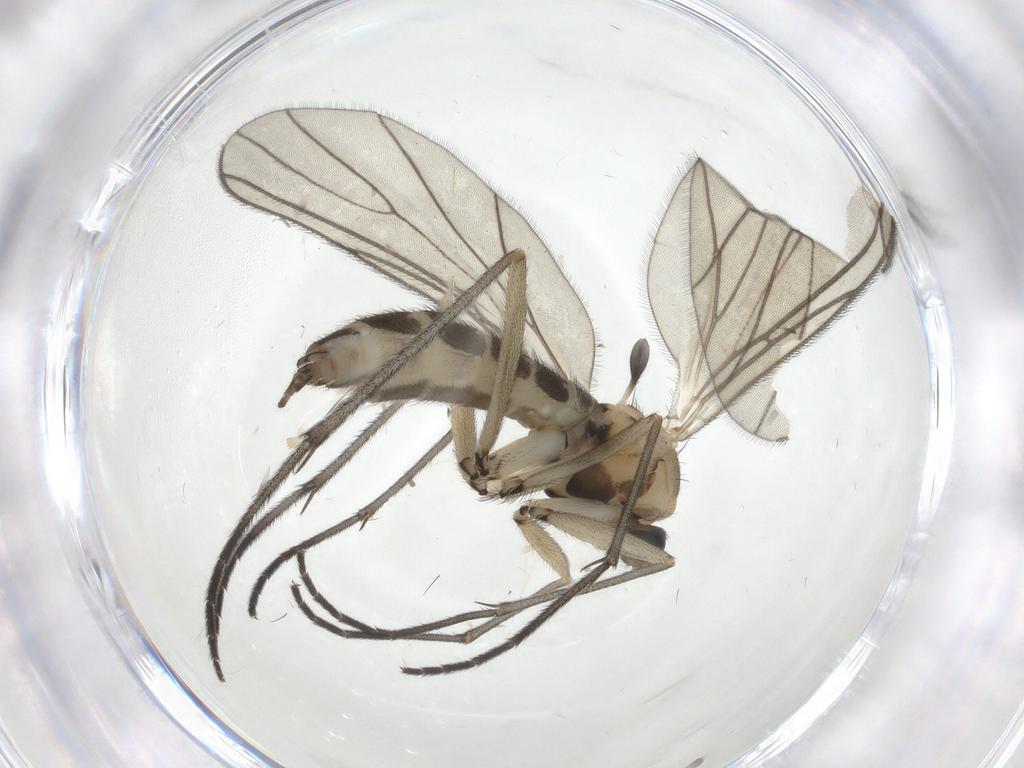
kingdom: Animalia
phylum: Arthropoda
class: Insecta
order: Diptera
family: Sciaridae
